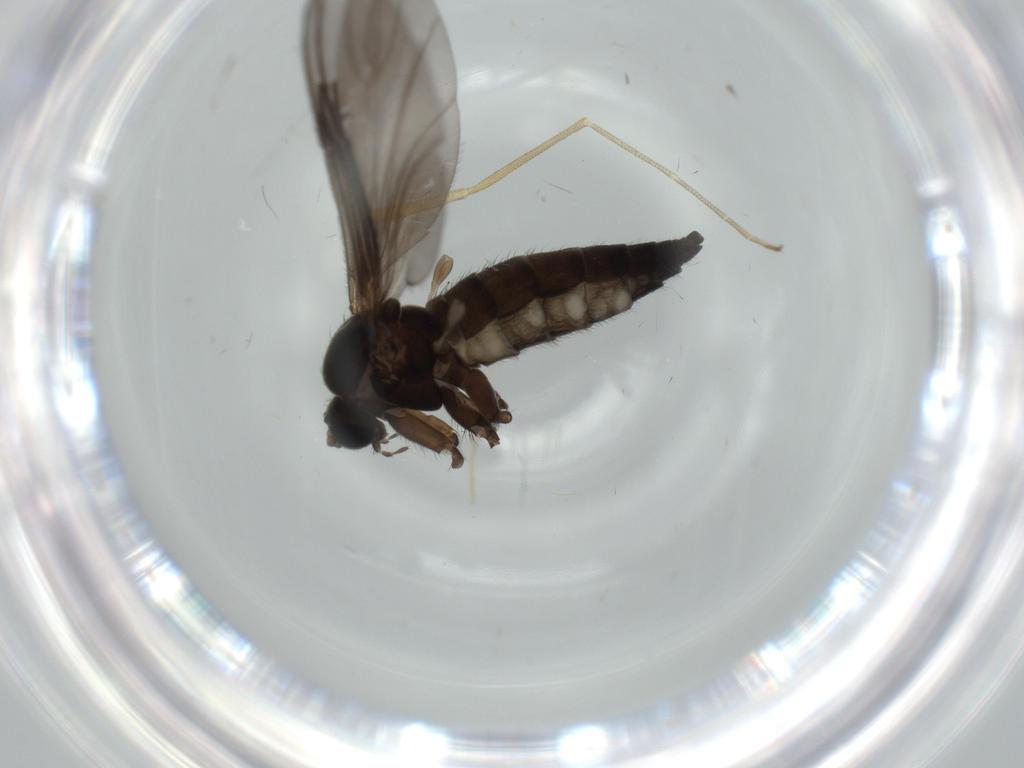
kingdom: Animalia
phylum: Arthropoda
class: Insecta
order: Diptera
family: Sciaridae
